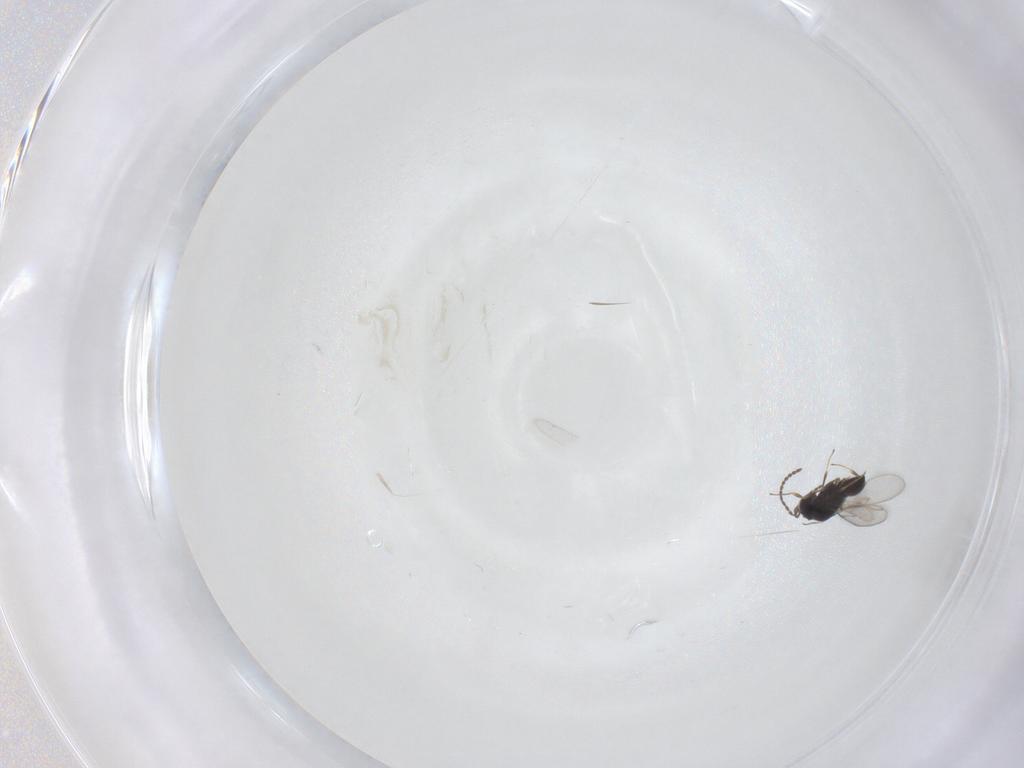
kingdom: Animalia
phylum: Arthropoda
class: Insecta
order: Hymenoptera
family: Scelionidae
